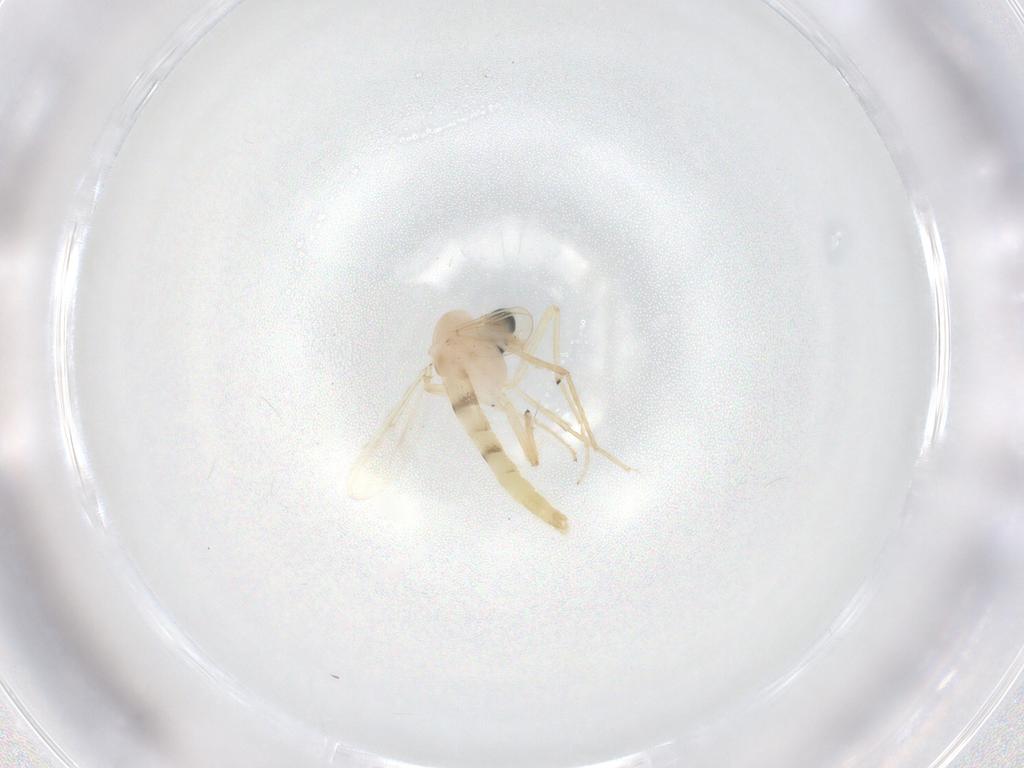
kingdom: Animalia
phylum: Arthropoda
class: Insecta
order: Diptera
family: Chironomidae
